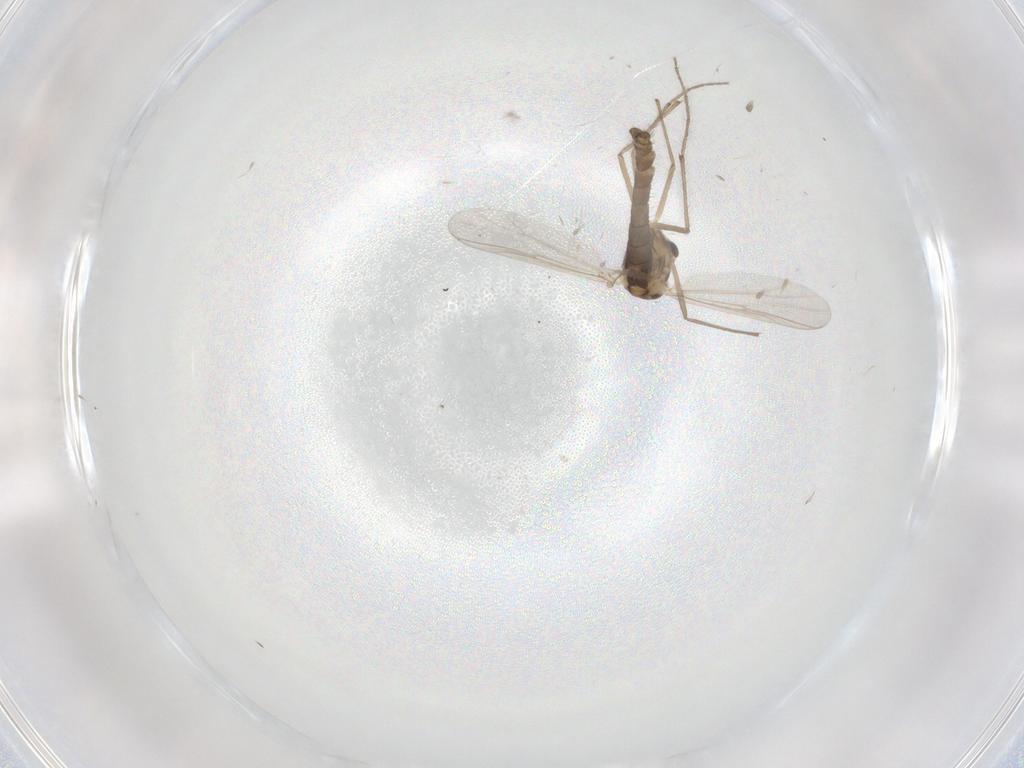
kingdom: Animalia
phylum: Arthropoda
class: Insecta
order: Diptera
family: Chironomidae
